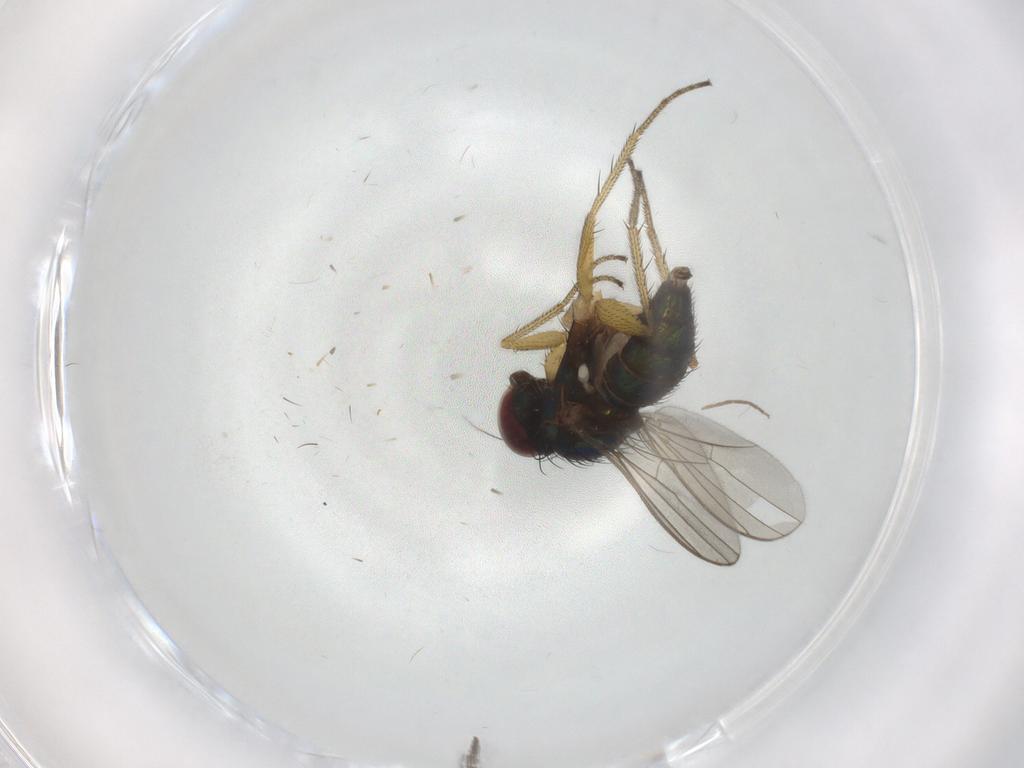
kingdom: Animalia
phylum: Arthropoda
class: Insecta
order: Diptera
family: Dolichopodidae
